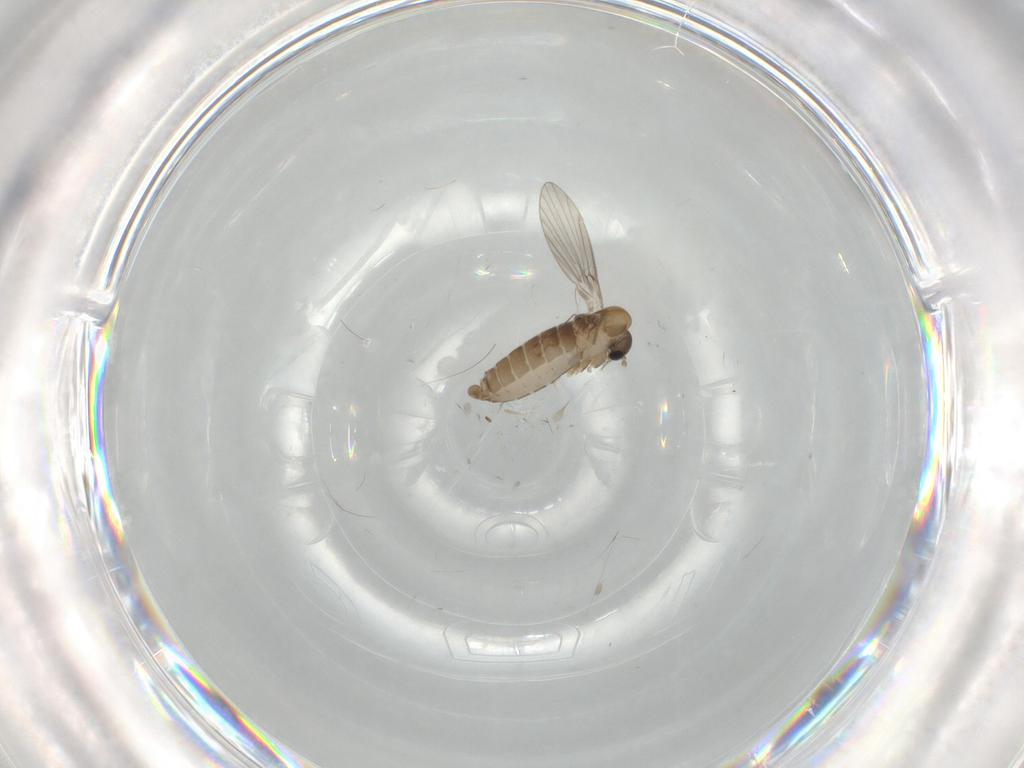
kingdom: Animalia
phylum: Arthropoda
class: Insecta
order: Diptera
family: Psychodidae
